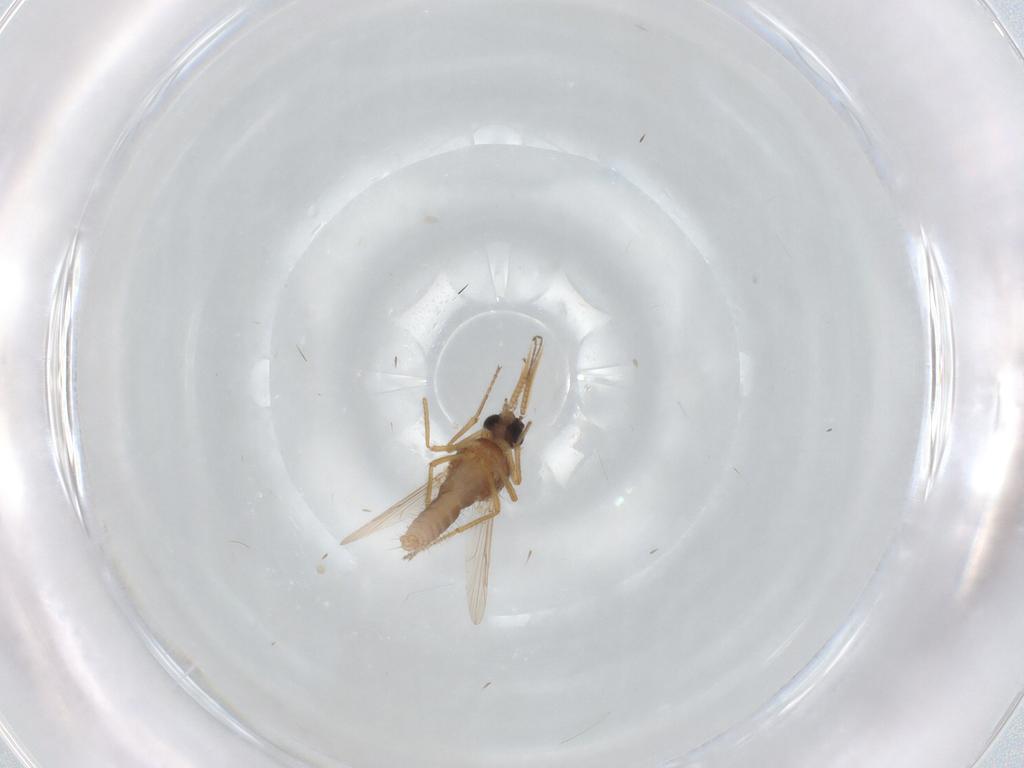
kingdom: Animalia
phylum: Arthropoda
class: Insecta
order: Diptera
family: Ceratopogonidae
